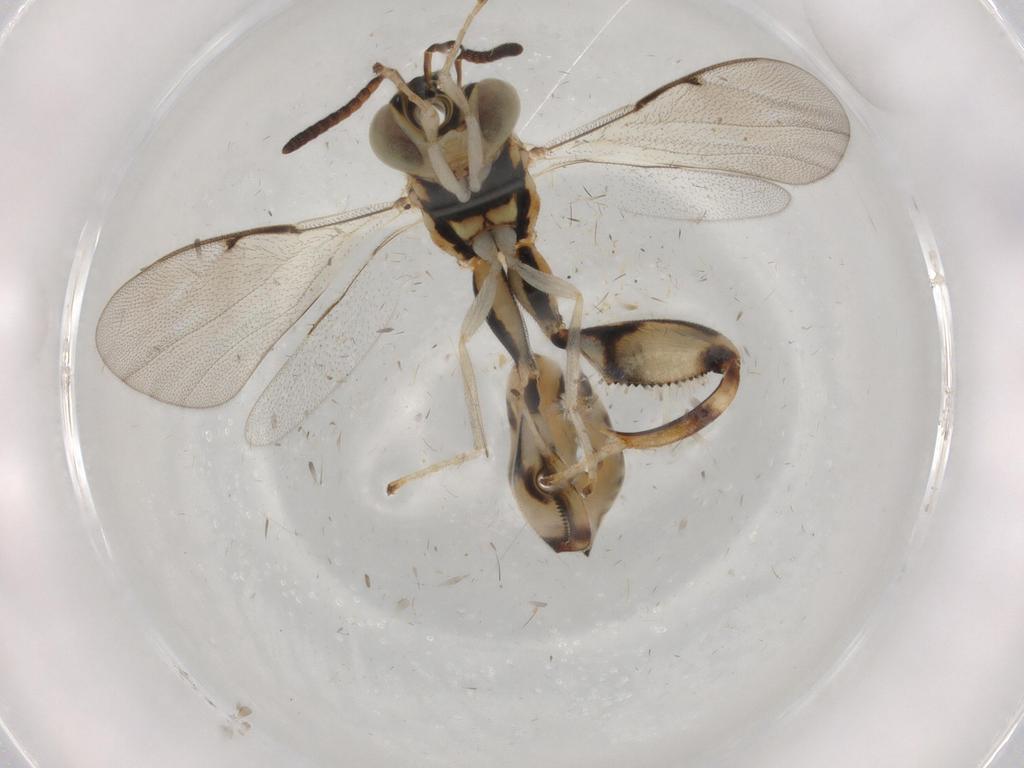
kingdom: Animalia
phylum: Arthropoda
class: Insecta
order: Hymenoptera
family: Chalcididae
